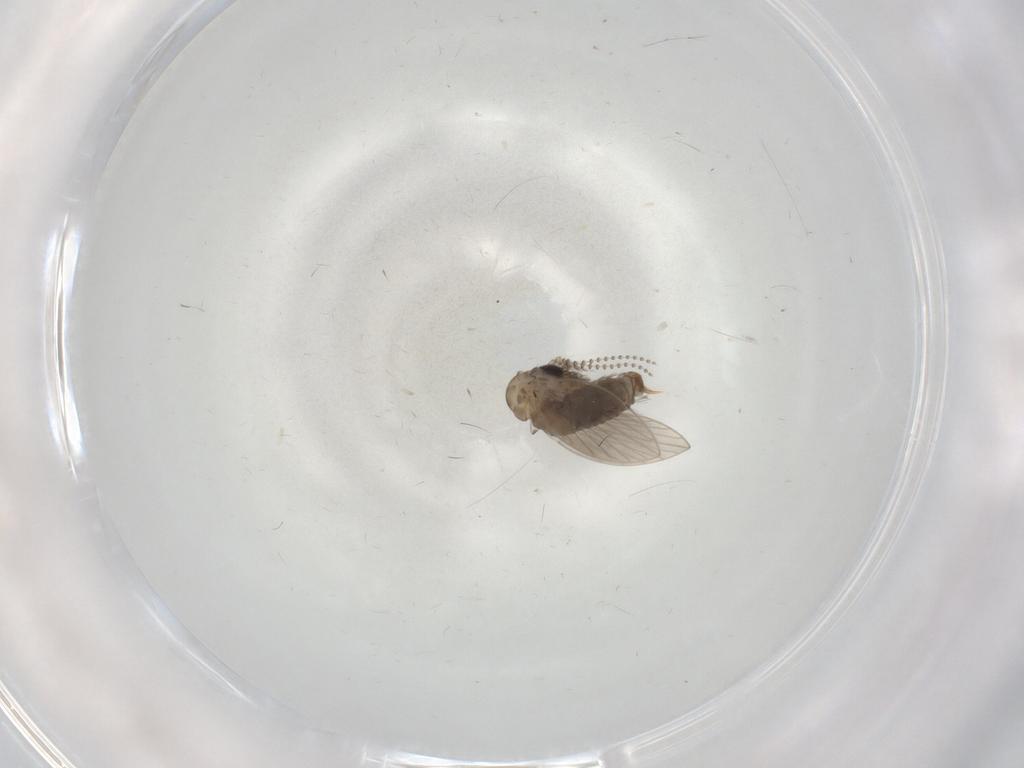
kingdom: Animalia
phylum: Arthropoda
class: Insecta
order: Diptera
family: Psychodidae
